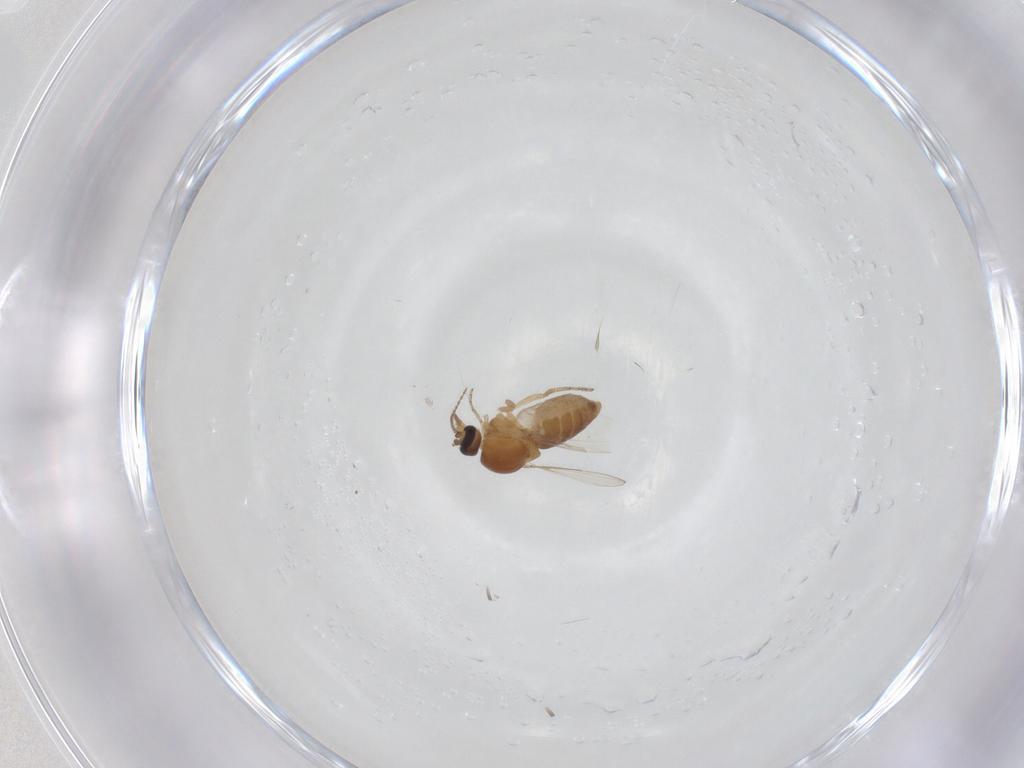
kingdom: Animalia
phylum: Arthropoda
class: Insecta
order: Diptera
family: Ceratopogonidae
